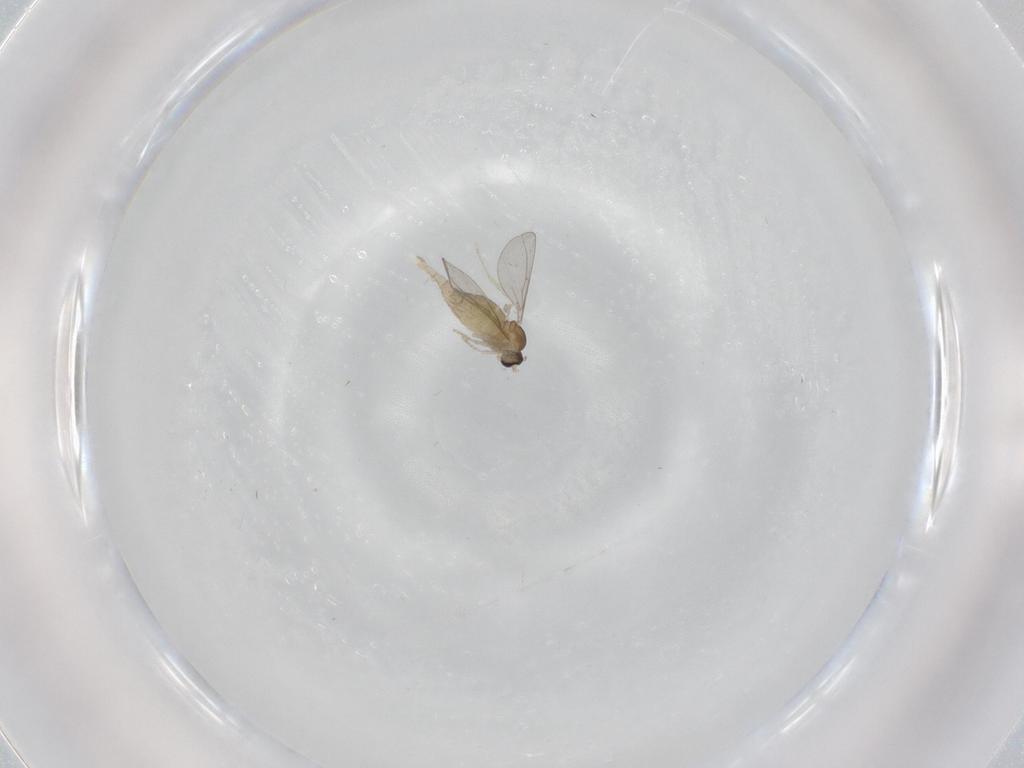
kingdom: Animalia
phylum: Arthropoda
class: Insecta
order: Diptera
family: Cecidomyiidae
